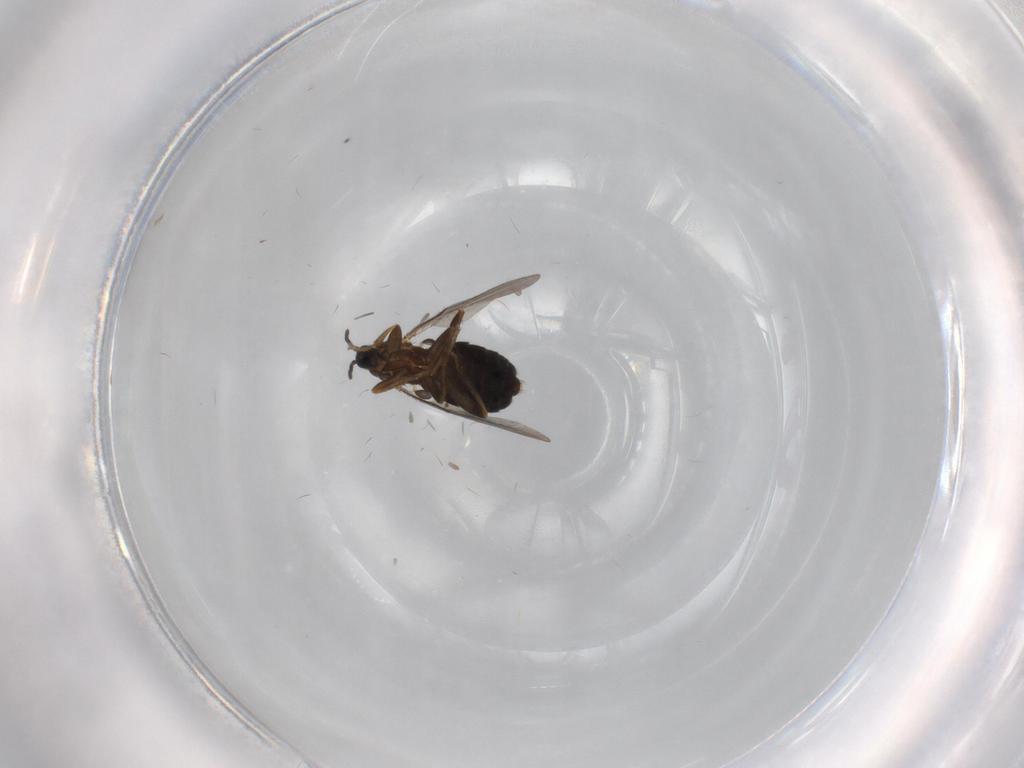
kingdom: Animalia
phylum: Arthropoda
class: Insecta
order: Diptera
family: Scatopsidae
